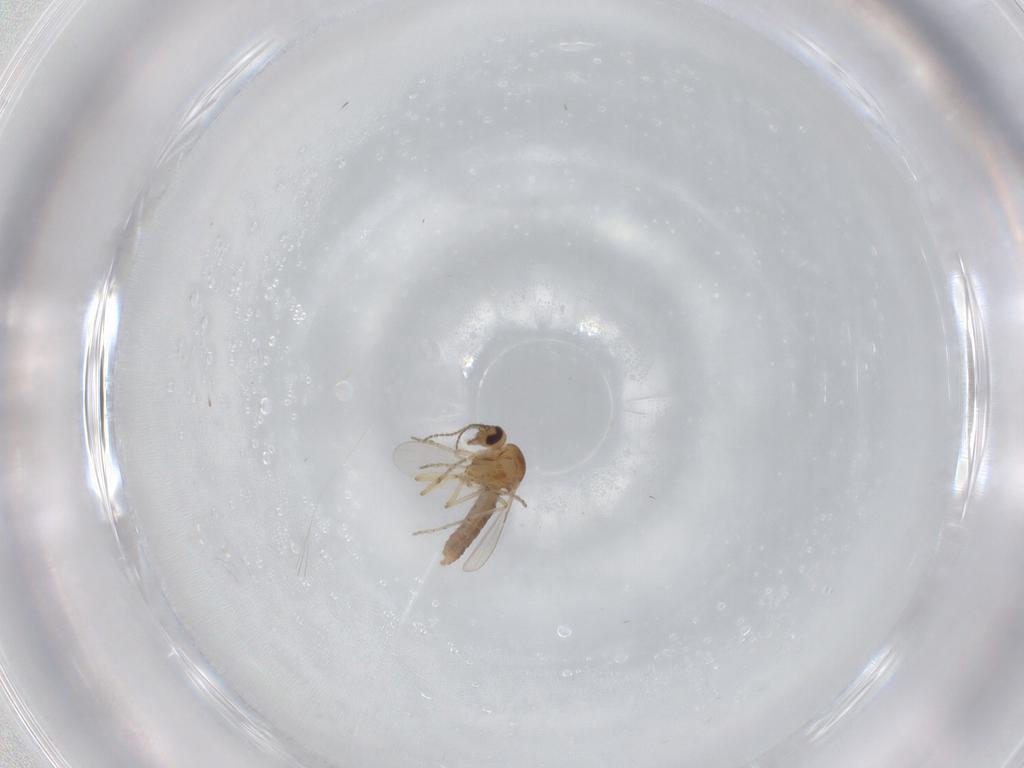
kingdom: Animalia
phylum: Arthropoda
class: Insecta
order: Diptera
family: Ceratopogonidae
